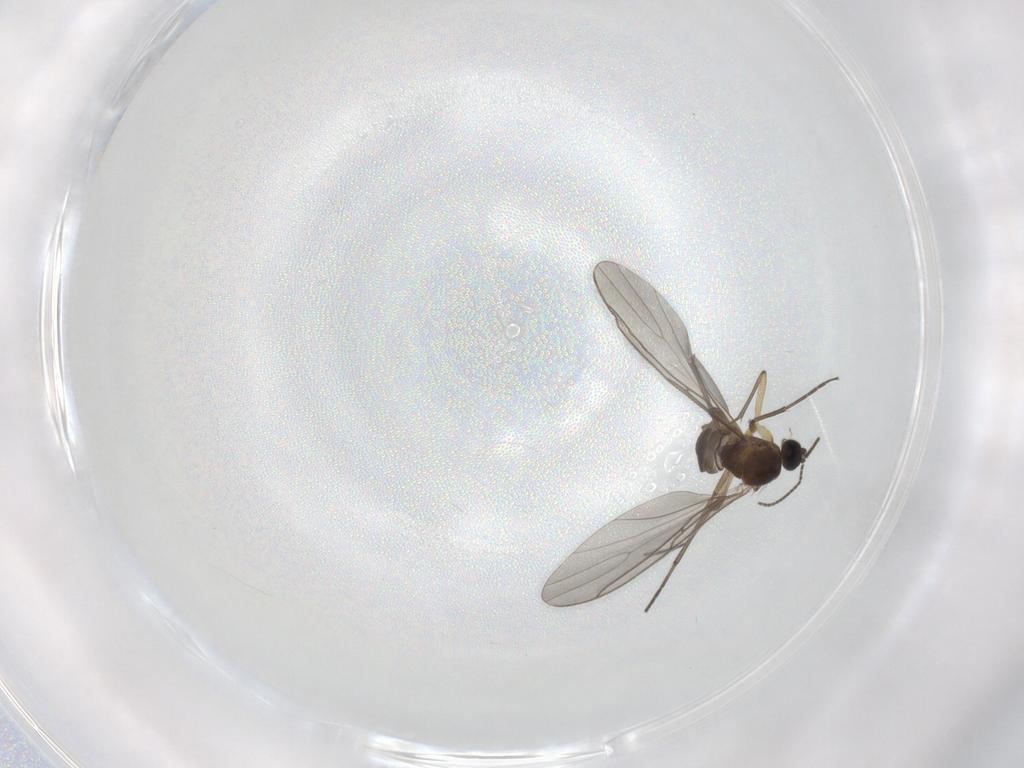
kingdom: Animalia
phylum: Arthropoda
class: Insecta
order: Diptera
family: Sciaridae
